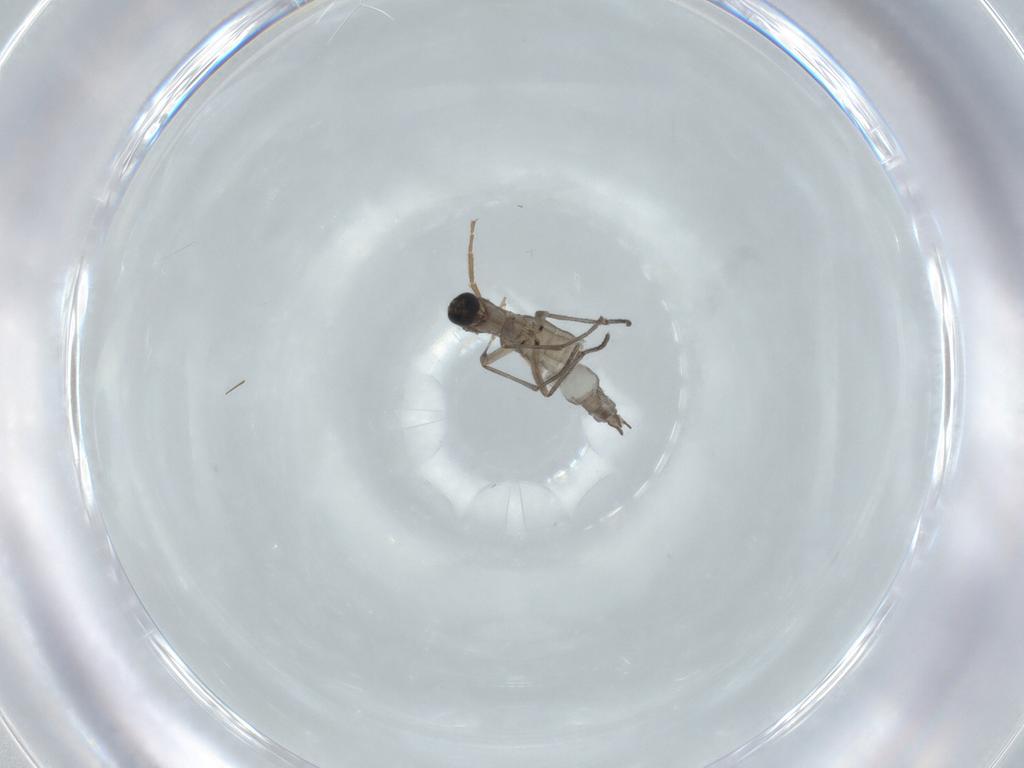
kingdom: Animalia
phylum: Arthropoda
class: Insecta
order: Diptera
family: Sciaridae
